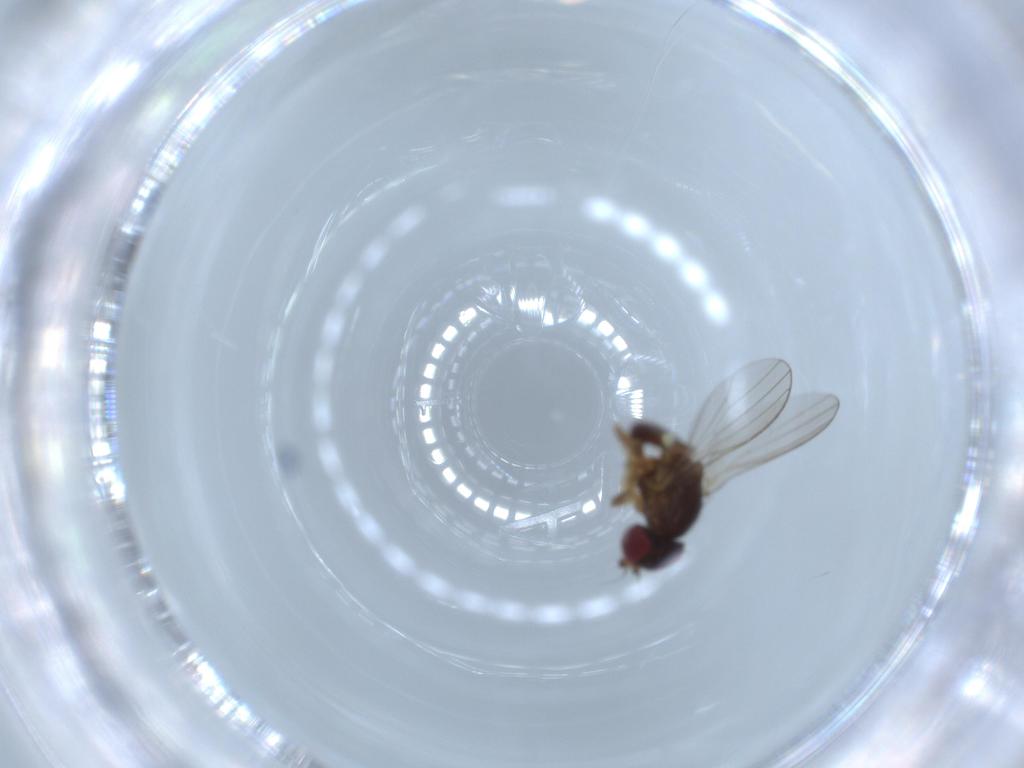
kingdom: Animalia
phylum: Arthropoda
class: Insecta
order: Diptera
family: Chamaemyiidae
